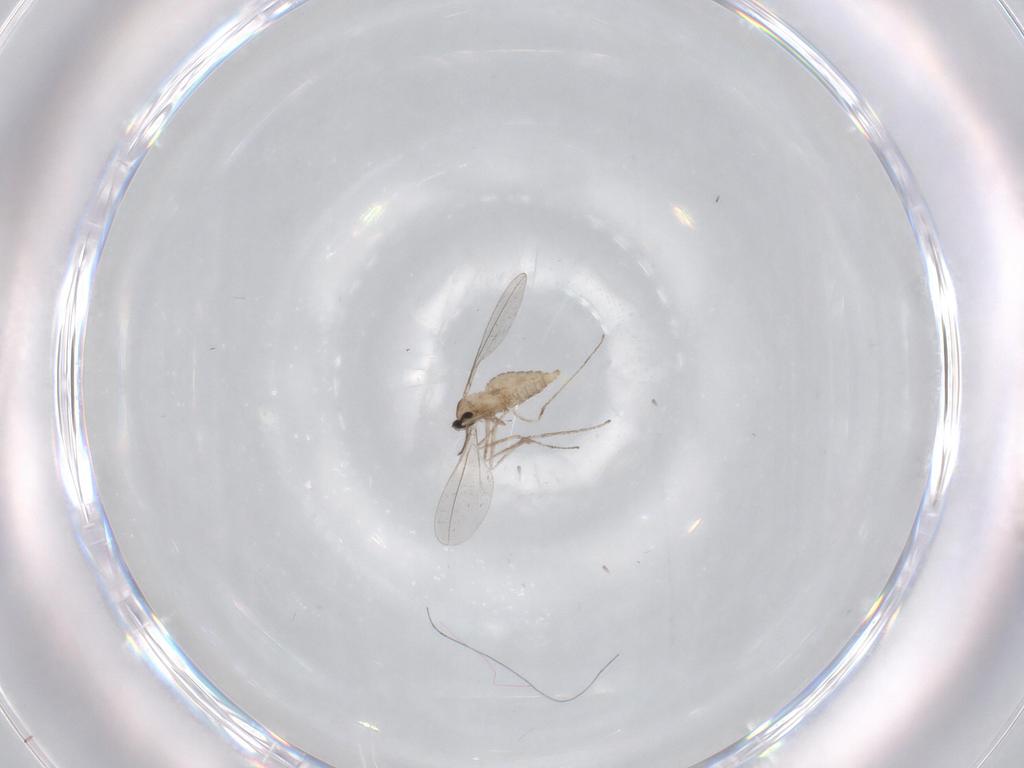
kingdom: Animalia
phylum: Arthropoda
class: Insecta
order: Diptera
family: Cecidomyiidae
